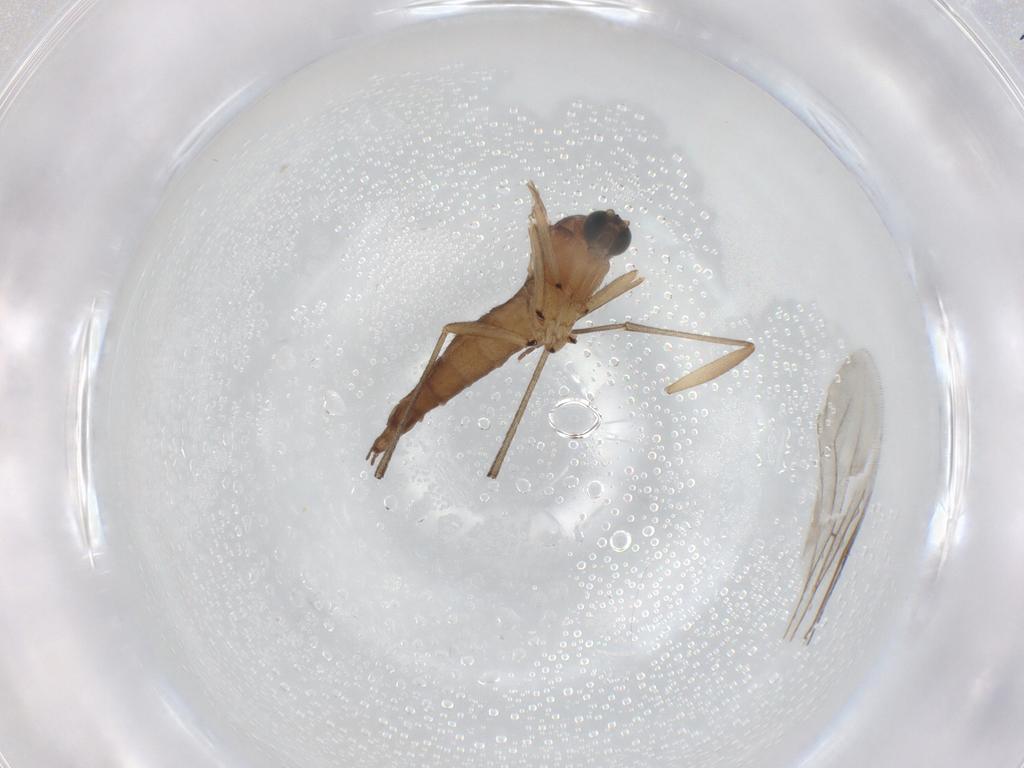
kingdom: Animalia
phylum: Arthropoda
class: Insecta
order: Diptera
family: Sciaridae
